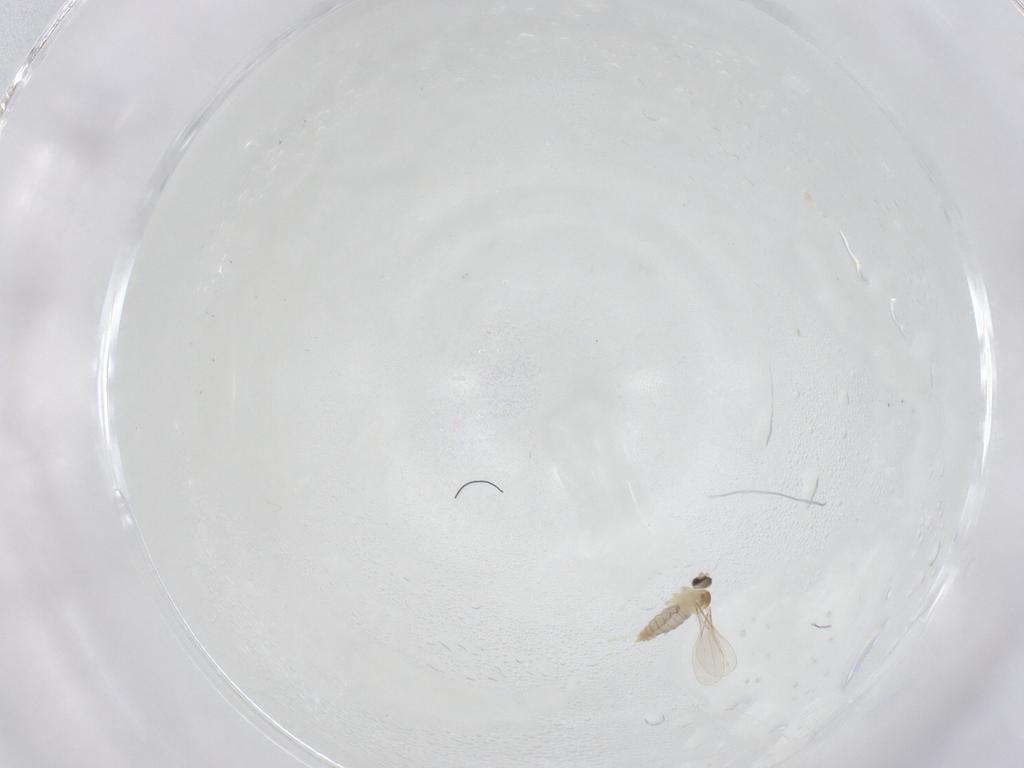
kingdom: Animalia
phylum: Arthropoda
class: Insecta
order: Diptera
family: Ceratopogonidae
